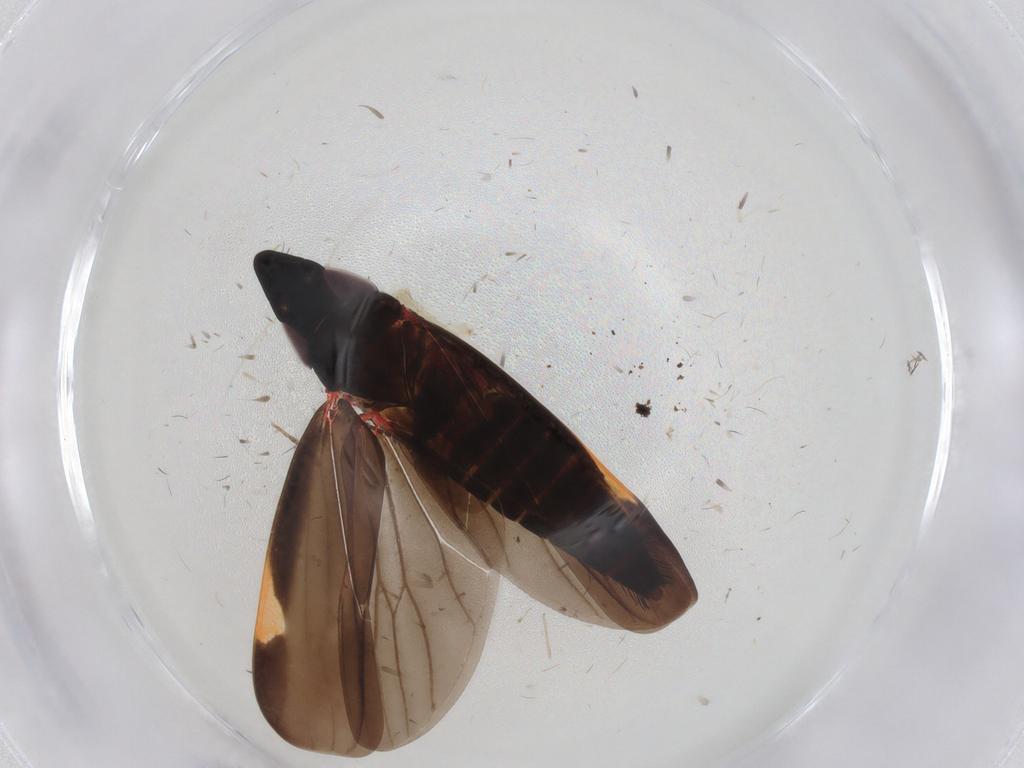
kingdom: Animalia
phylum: Arthropoda
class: Insecta
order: Hemiptera
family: Cicadellidae
